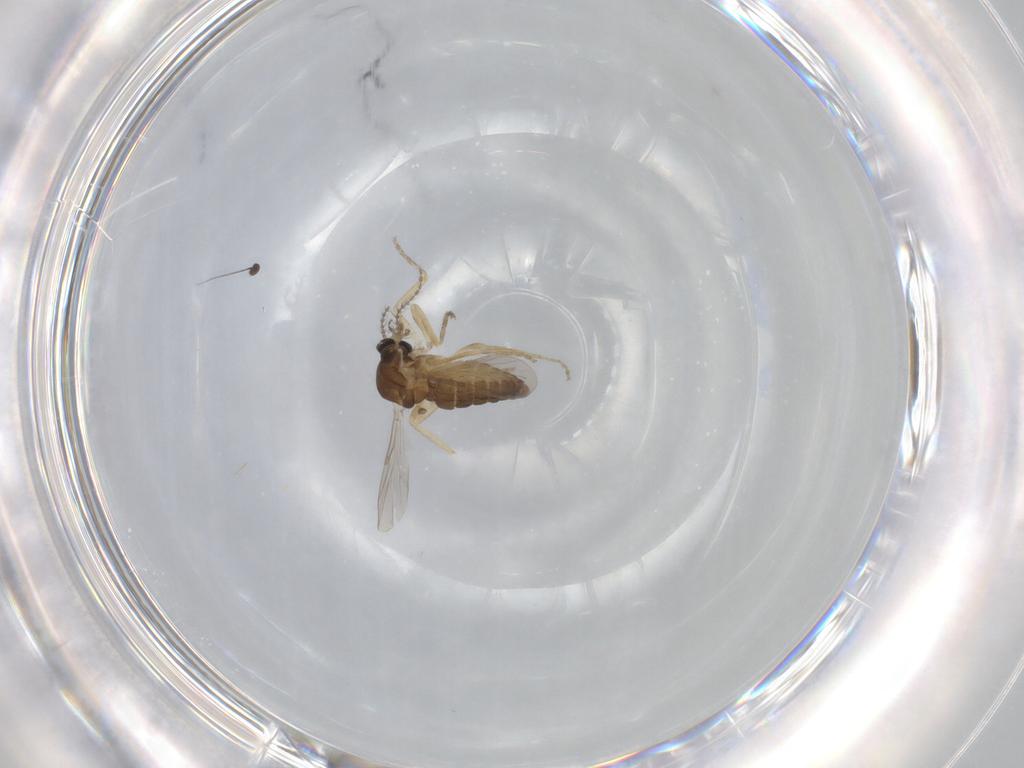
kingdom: Animalia
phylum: Arthropoda
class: Insecta
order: Diptera
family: Ceratopogonidae
